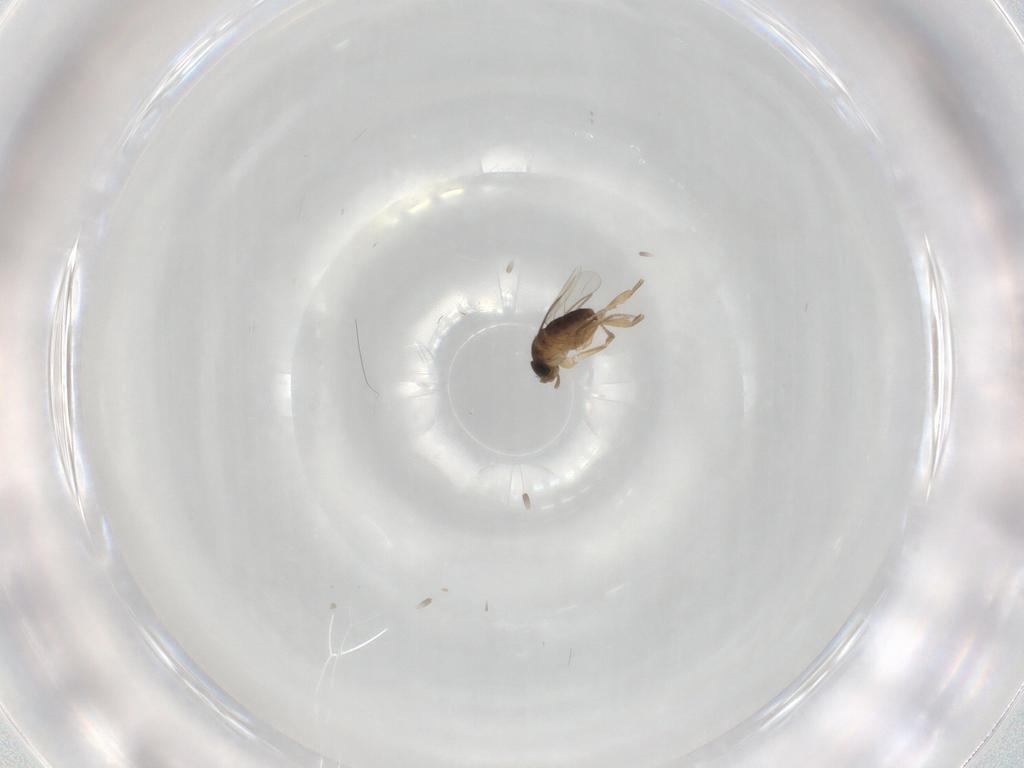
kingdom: Animalia
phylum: Arthropoda
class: Insecta
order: Diptera
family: Phoridae
